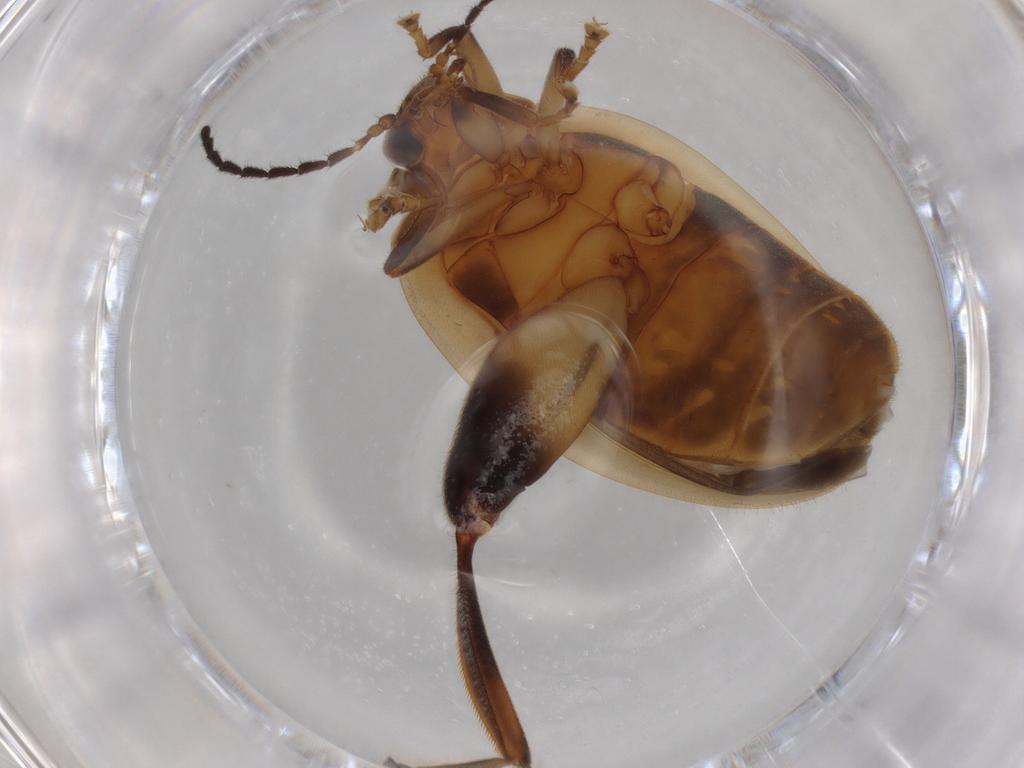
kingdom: Animalia
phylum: Arthropoda
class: Insecta
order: Coleoptera
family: Scirtidae
